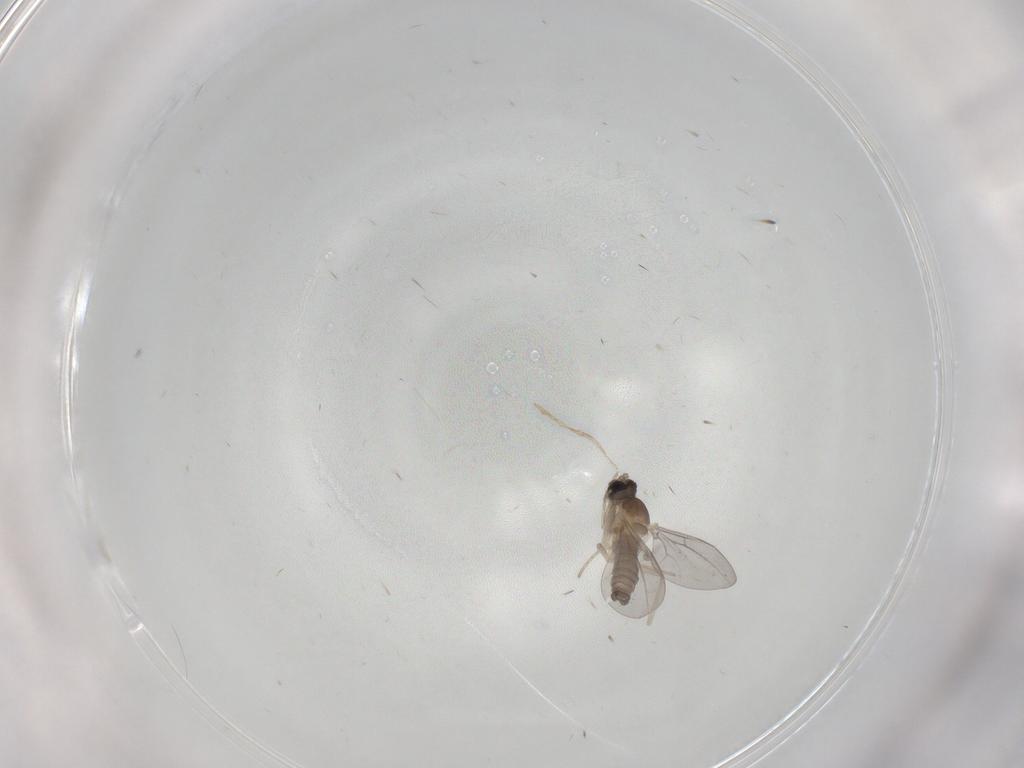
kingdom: Animalia
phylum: Arthropoda
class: Insecta
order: Diptera
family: Cecidomyiidae
